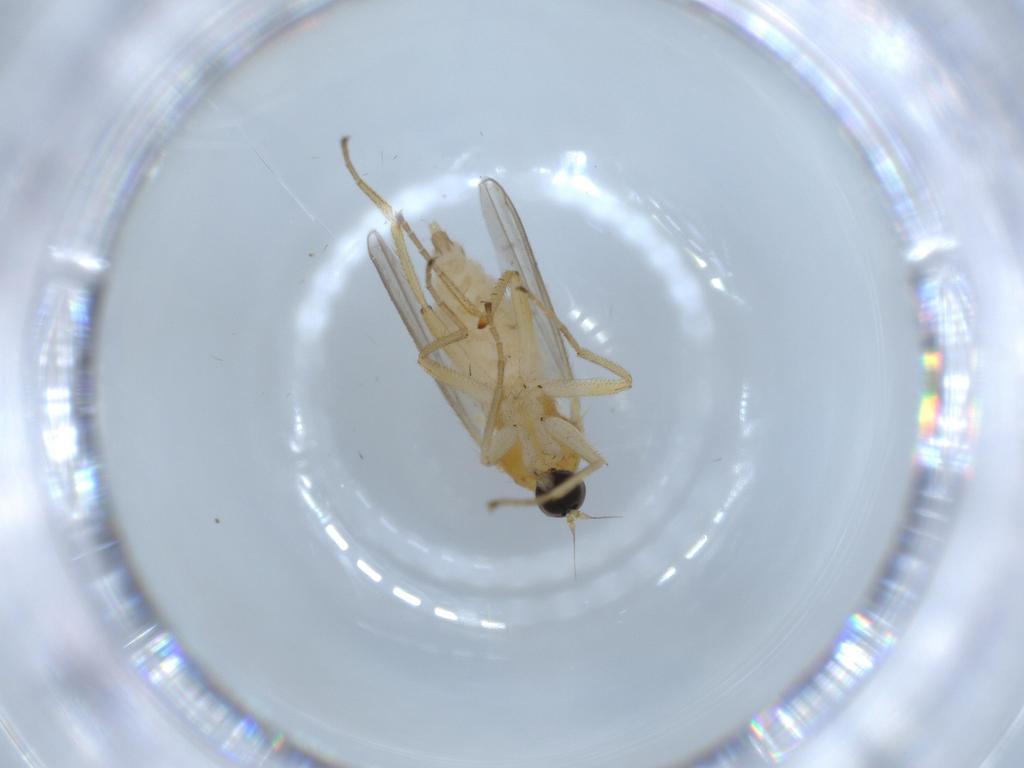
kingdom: Animalia
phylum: Arthropoda
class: Insecta
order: Diptera
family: Hybotidae
